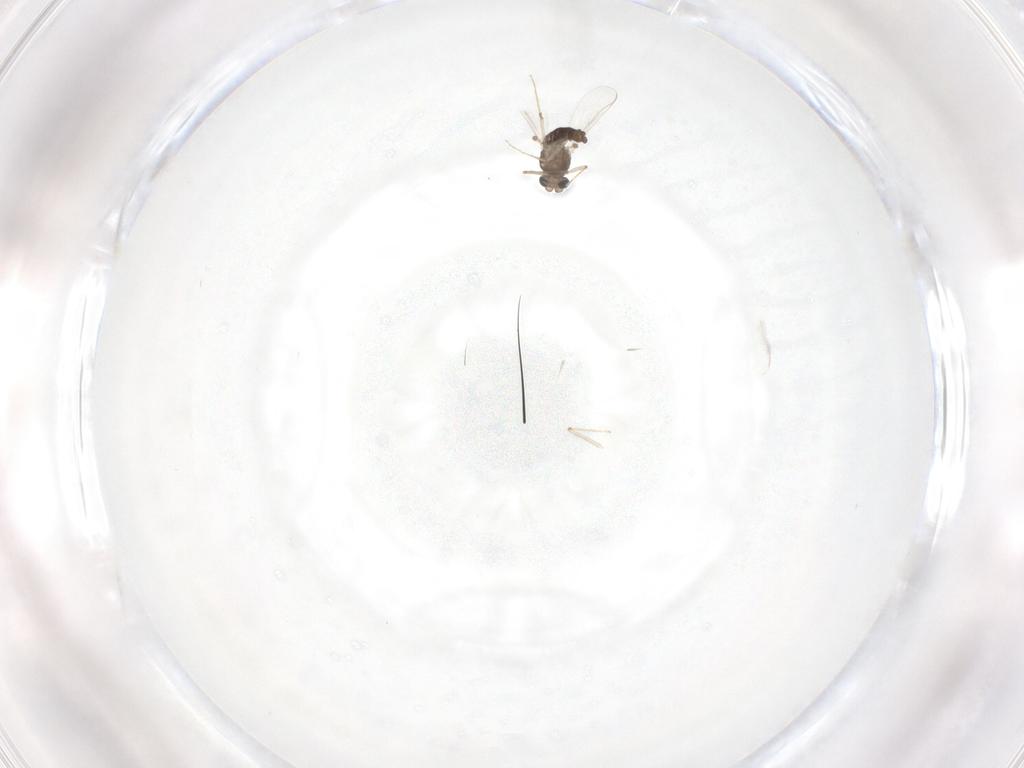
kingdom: Animalia
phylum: Arthropoda
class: Insecta
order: Diptera
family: Chironomidae
